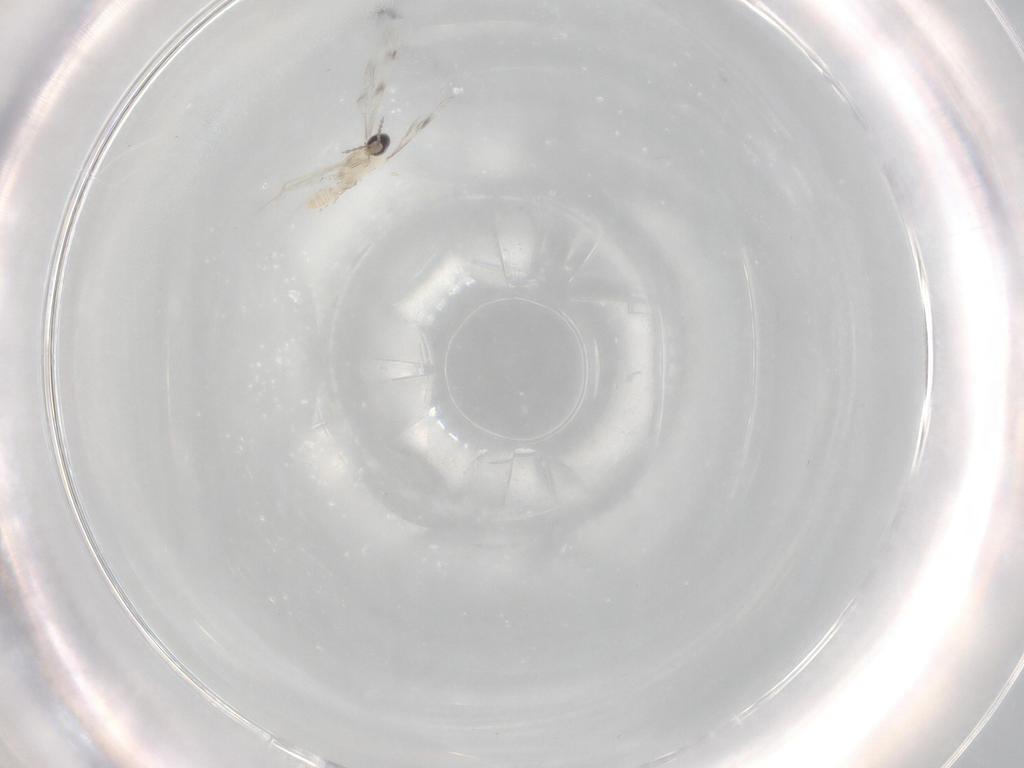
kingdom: Animalia
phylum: Arthropoda
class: Insecta
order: Diptera
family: Cecidomyiidae
